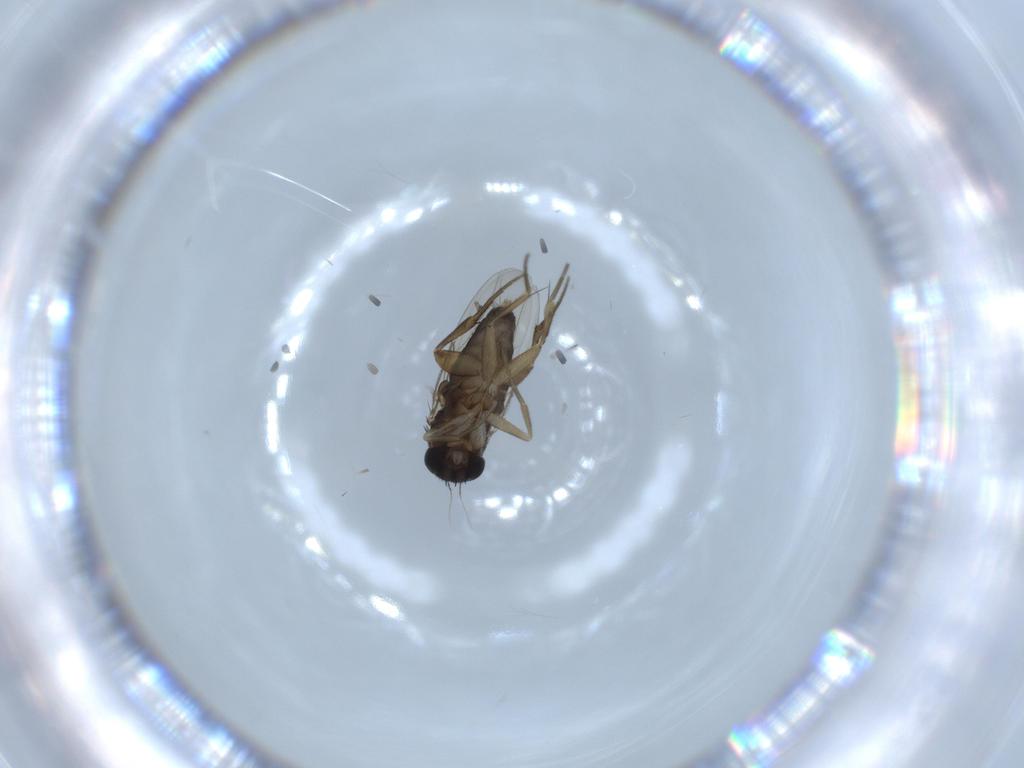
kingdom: Animalia
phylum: Arthropoda
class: Insecta
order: Diptera
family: Phoridae
